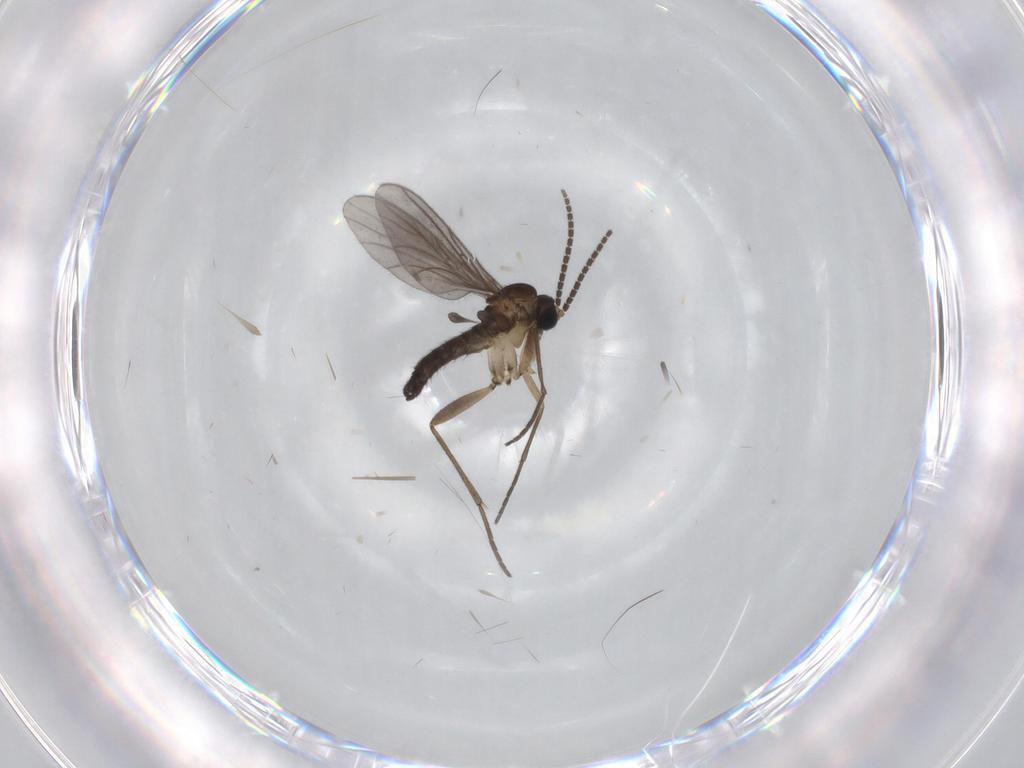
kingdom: Animalia
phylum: Arthropoda
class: Insecta
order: Diptera
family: Sciaridae
